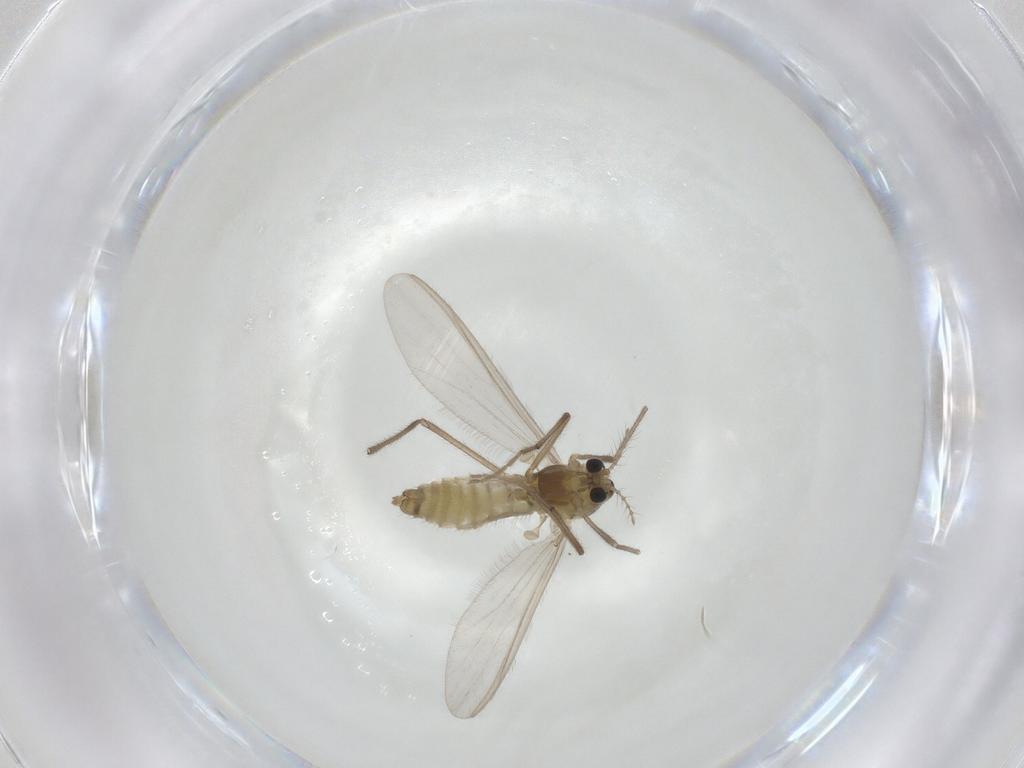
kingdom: Animalia
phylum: Arthropoda
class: Insecta
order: Diptera
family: Chironomidae
